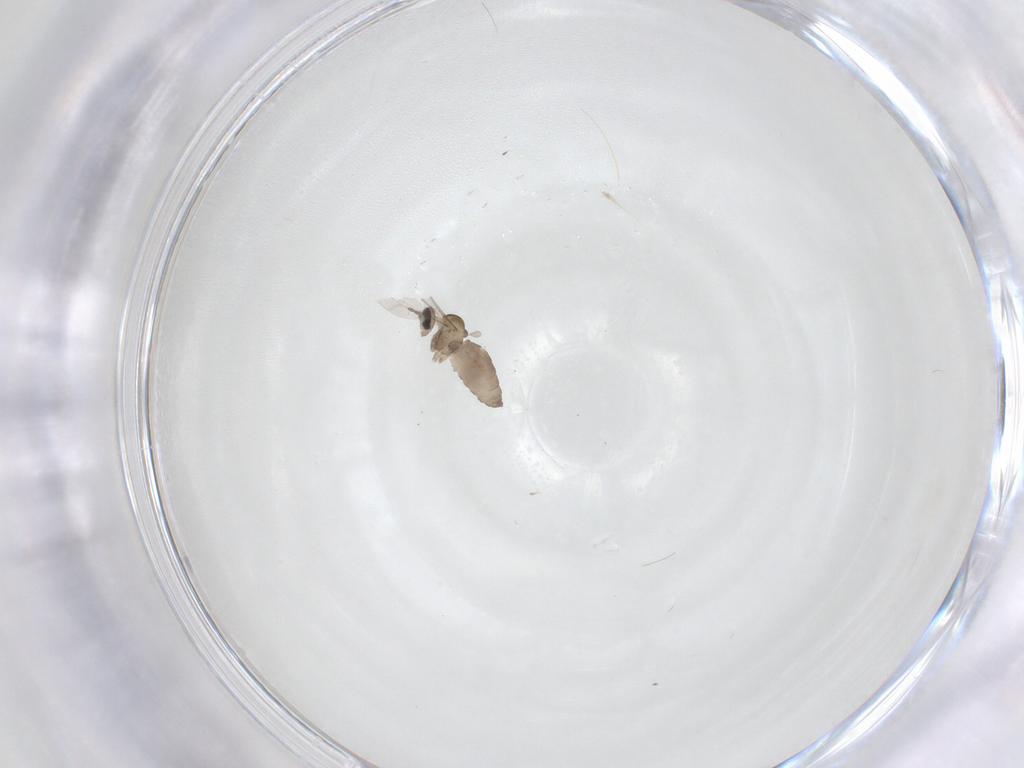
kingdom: Animalia
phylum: Arthropoda
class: Insecta
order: Diptera
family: Cecidomyiidae
